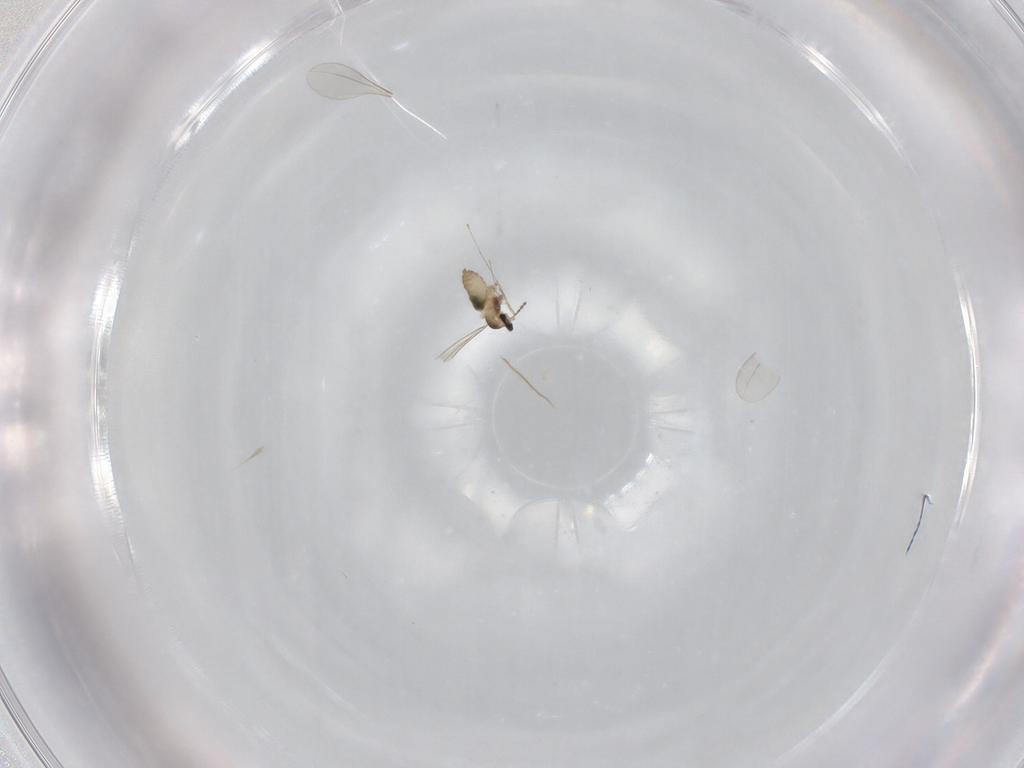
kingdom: Animalia
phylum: Arthropoda
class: Insecta
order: Diptera
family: Cecidomyiidae
